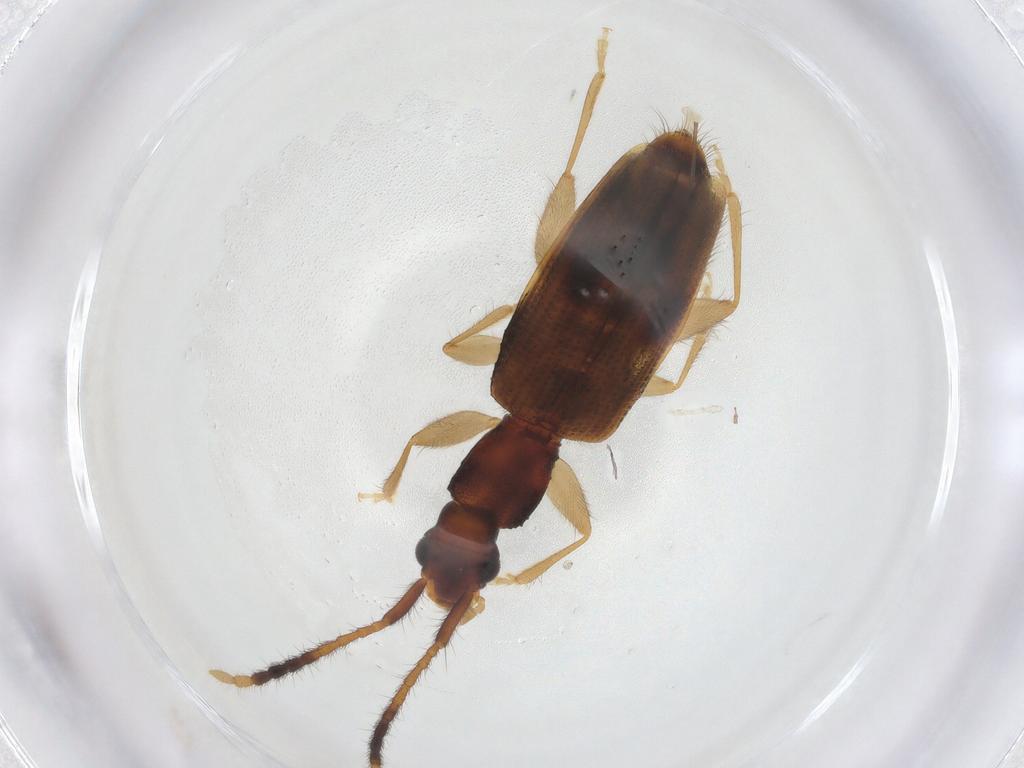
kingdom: Animalia
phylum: Arthropoda
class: Insecta
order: Coleoptera
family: Silvanidae
